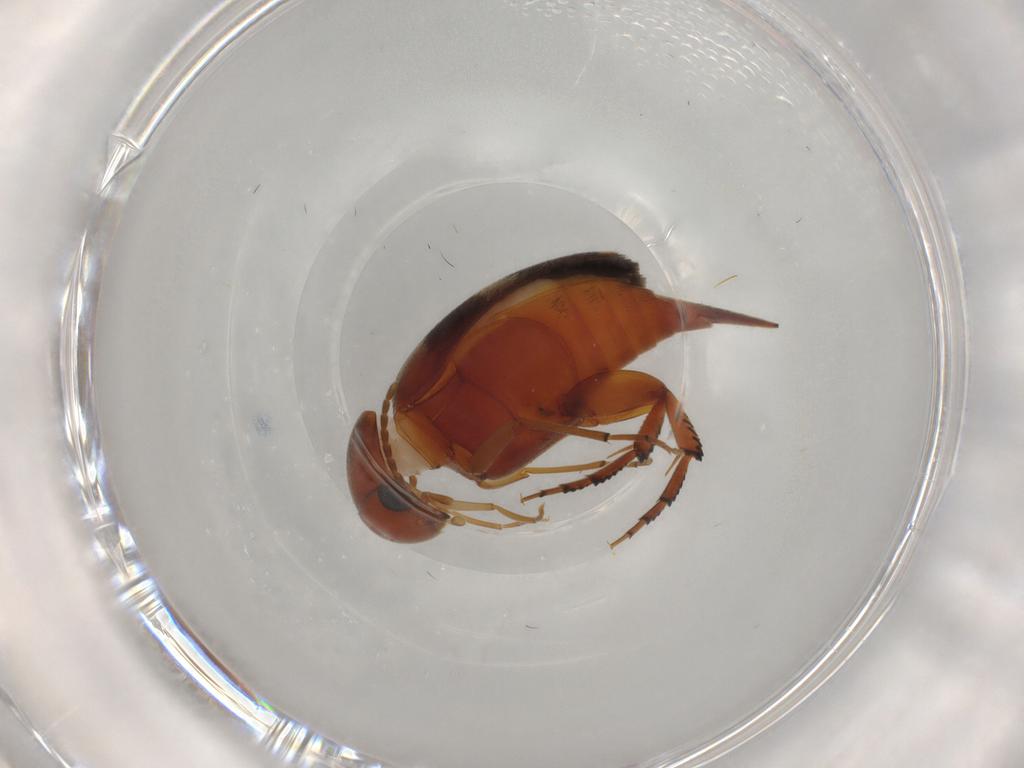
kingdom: Animalia
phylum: Arthropoda
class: Insecta
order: Coleoptera
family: Mordellidae
